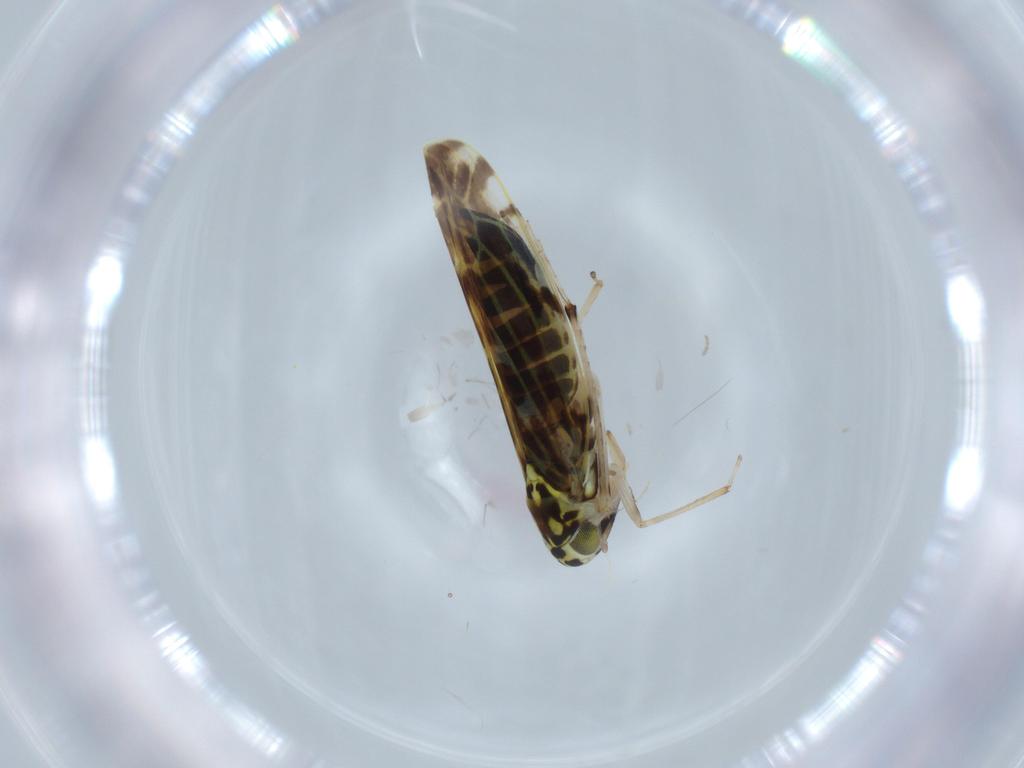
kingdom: Animalia
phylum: Arthropoda
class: Insecta
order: Hemiptera
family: Cicadellidae
